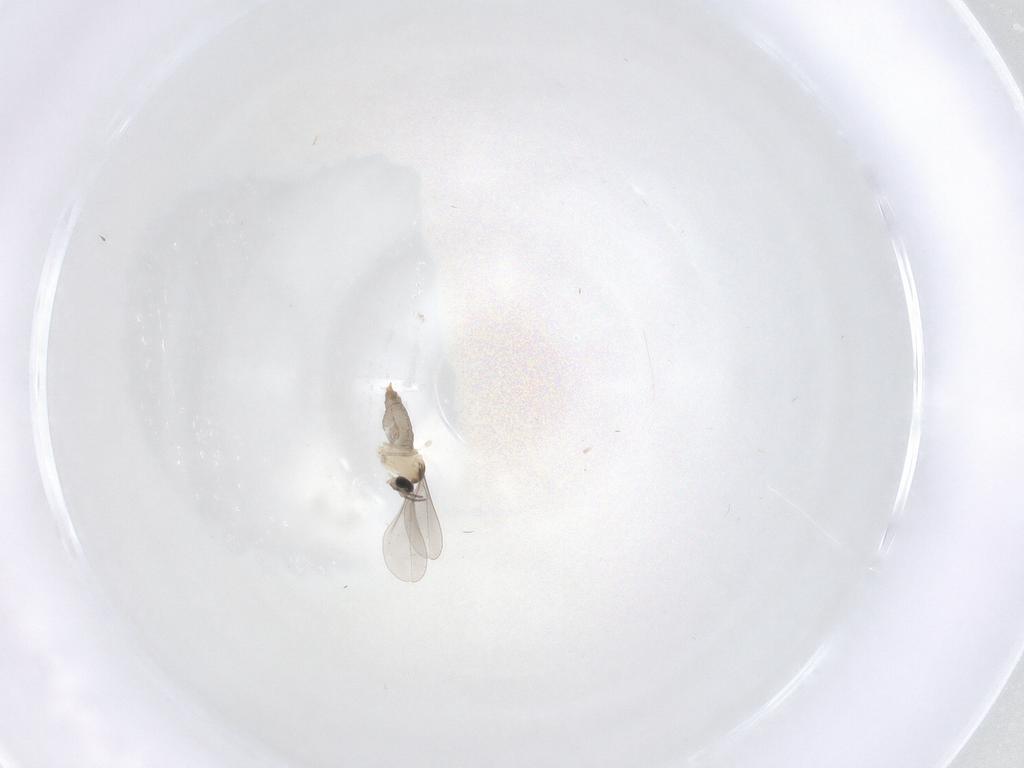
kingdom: Animalia
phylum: Arthropoda
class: Insecta
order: Diptera
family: Cecidomyiidae
